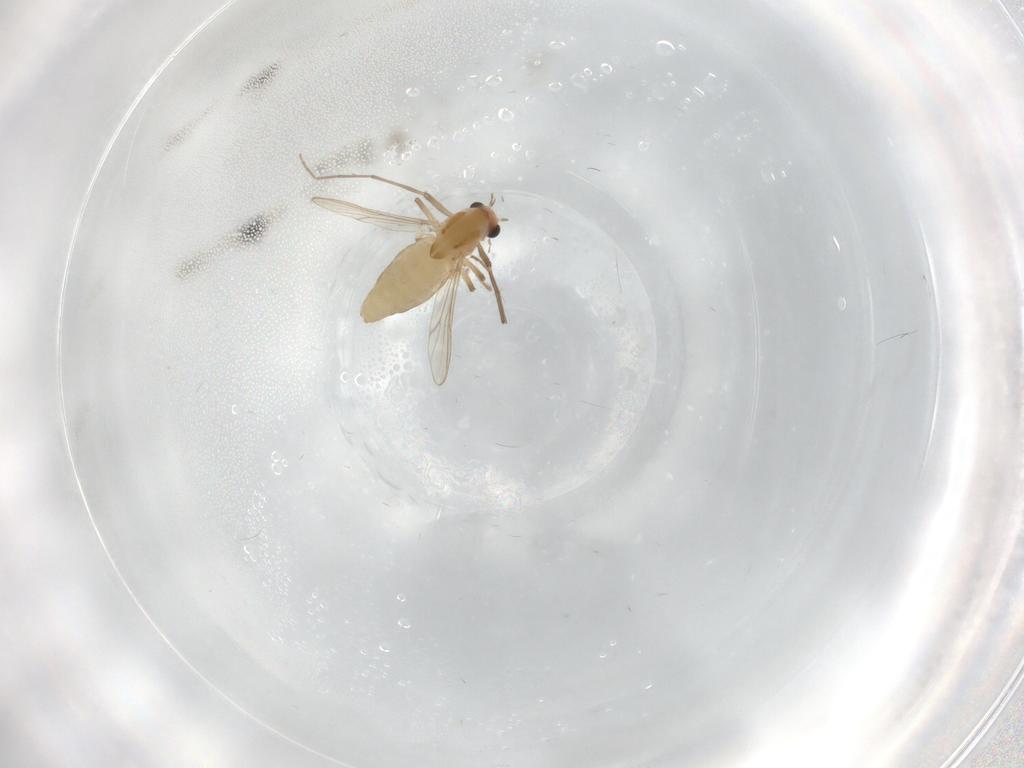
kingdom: Animalia
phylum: Arthropoda
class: Insecta
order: Diptera
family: Chironomidae
